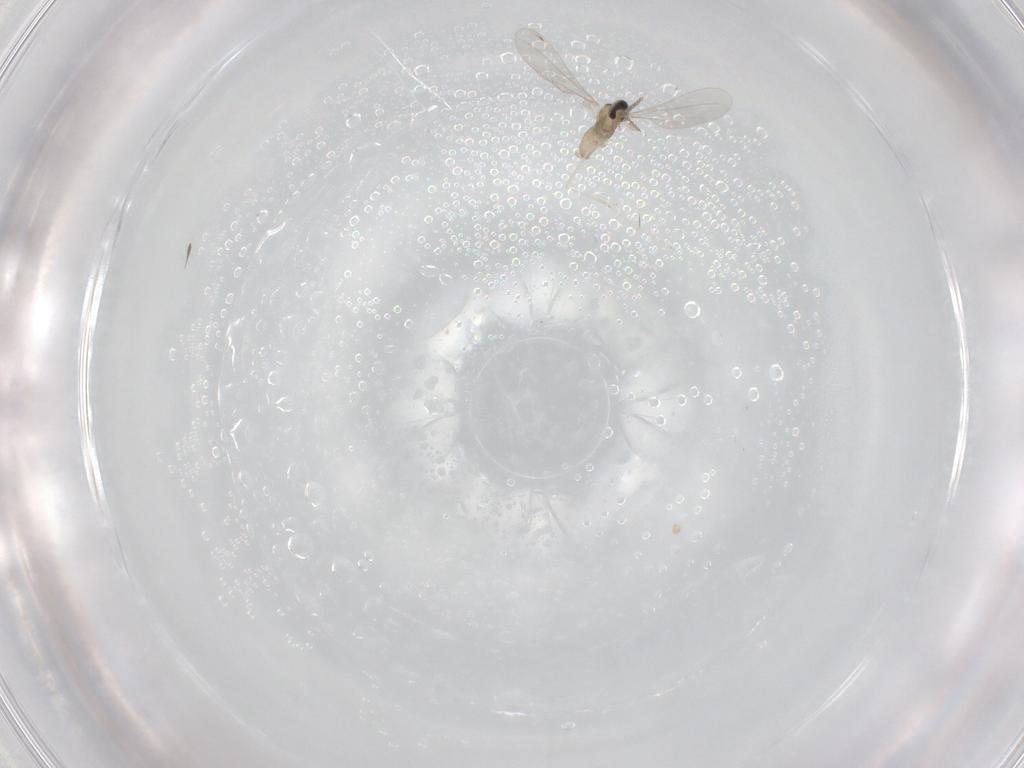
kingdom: Animalia
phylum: Arthropoda
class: Insecta
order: Diptera
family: Cecidomyiidae
